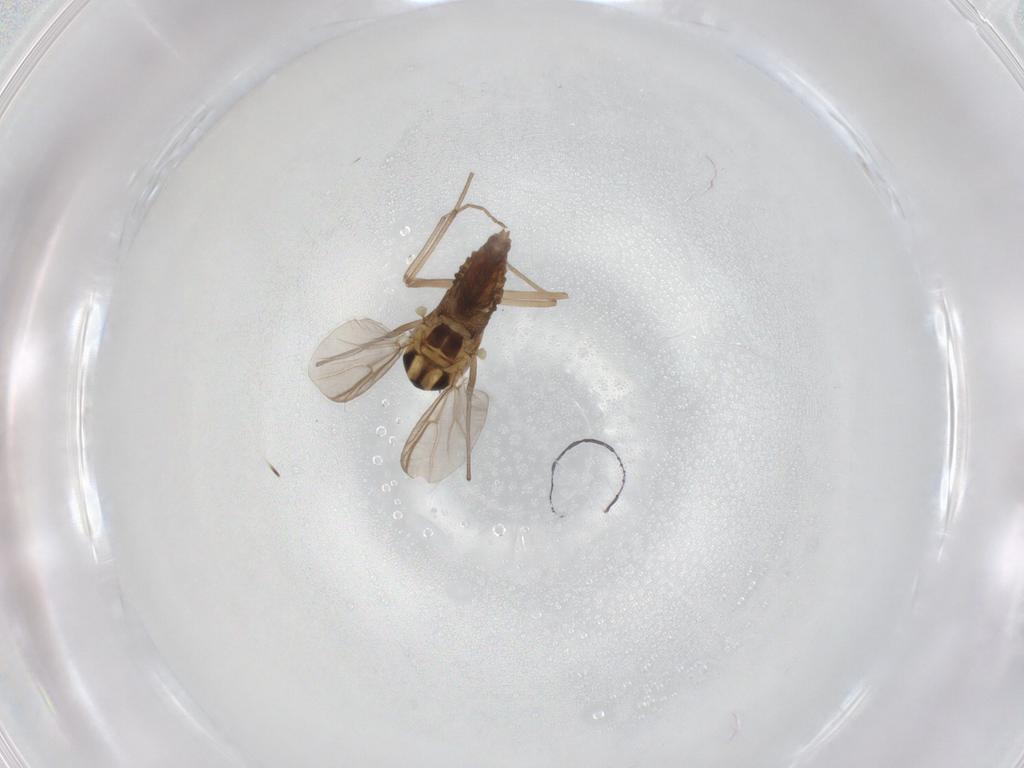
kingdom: Animalia
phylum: Arthropoda
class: Insecta
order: Diptera
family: Chironomidae
